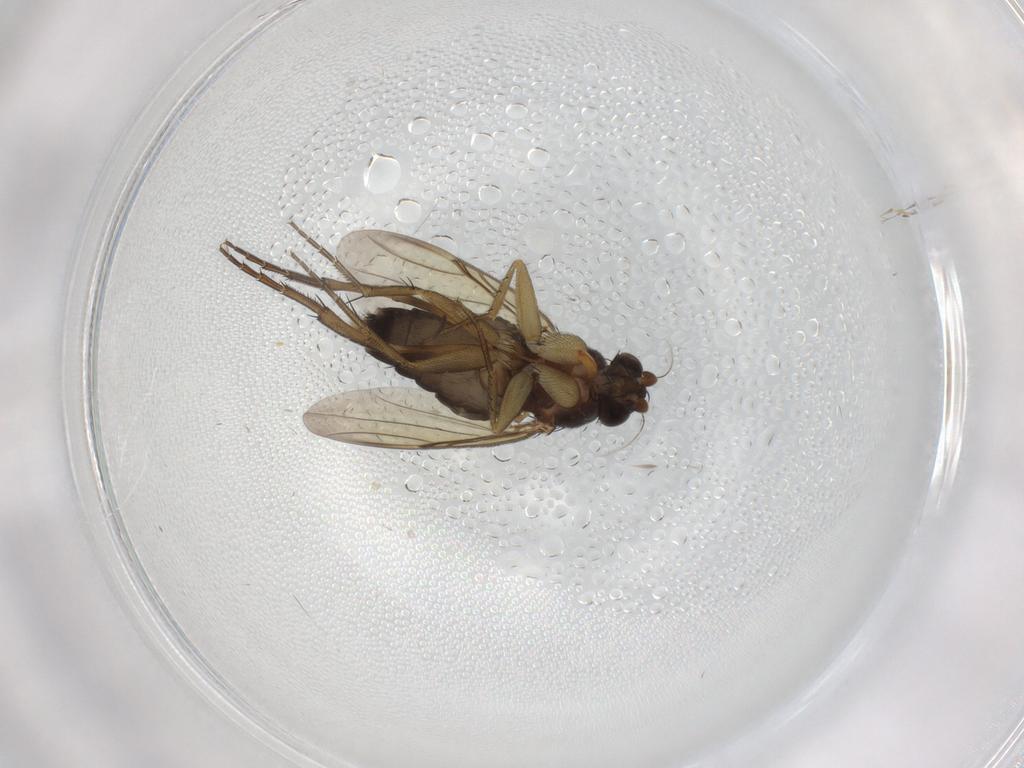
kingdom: Animalia
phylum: Arthropoda
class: Insecta
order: Diptera
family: Phoridae
